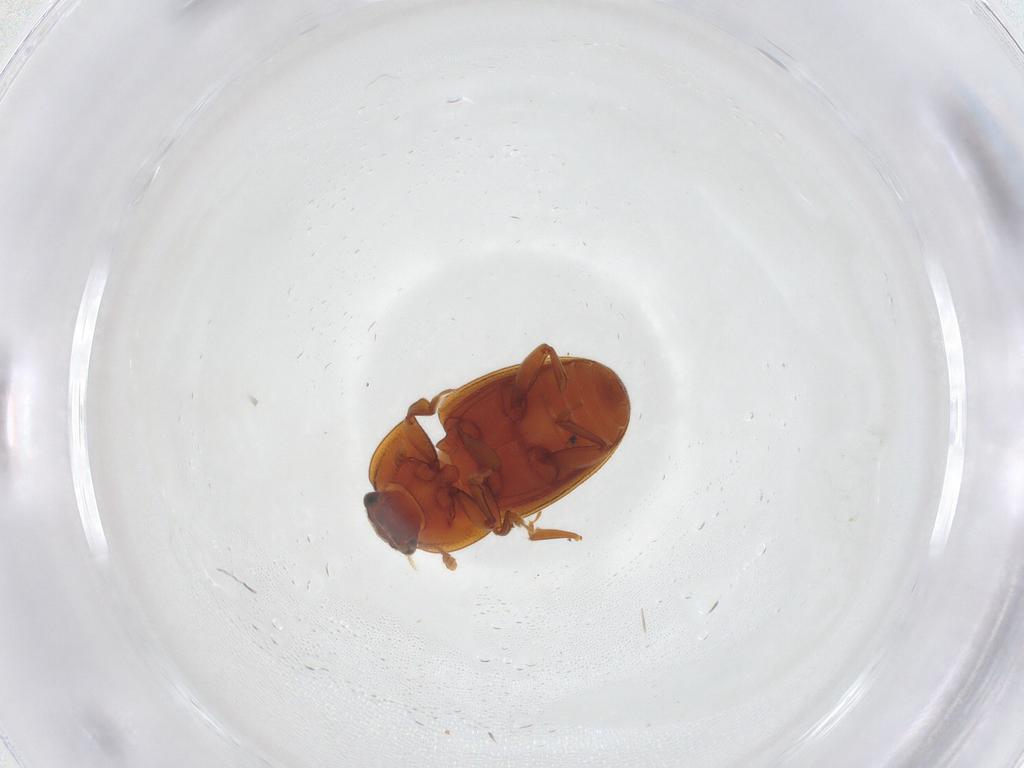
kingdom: Animalia
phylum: Arthropoda
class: Insecta
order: Coleoptera
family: Nitidulidae
